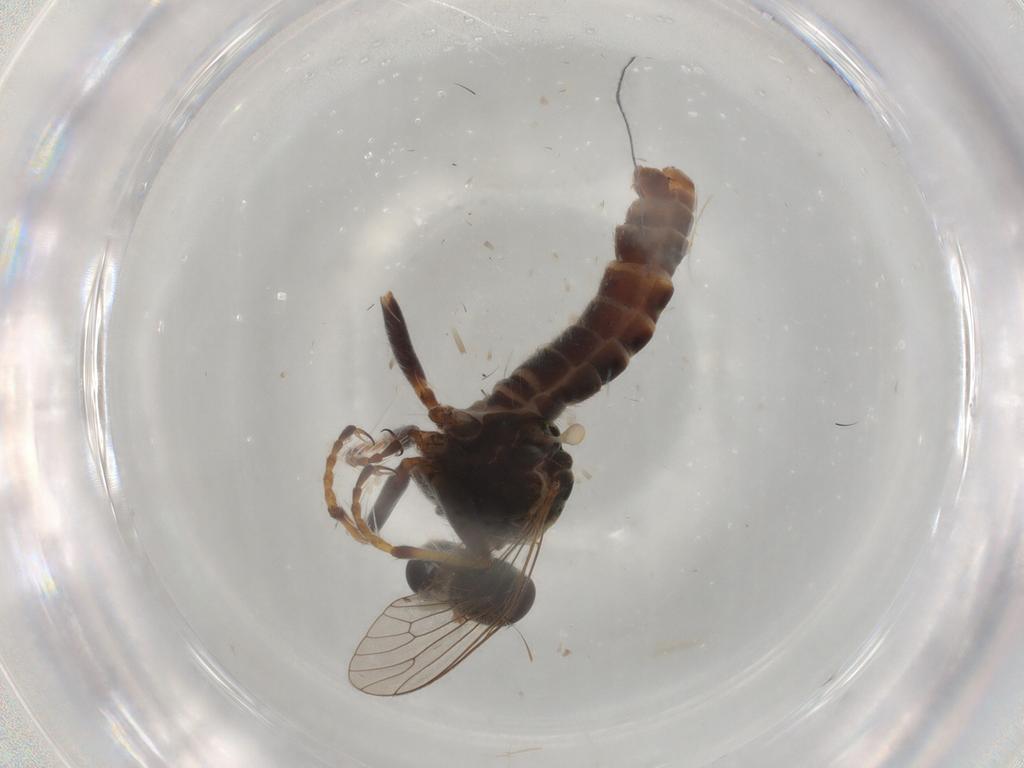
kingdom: Animalia
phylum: Arthropoda
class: Insecta
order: Diptera
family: Asilidae
